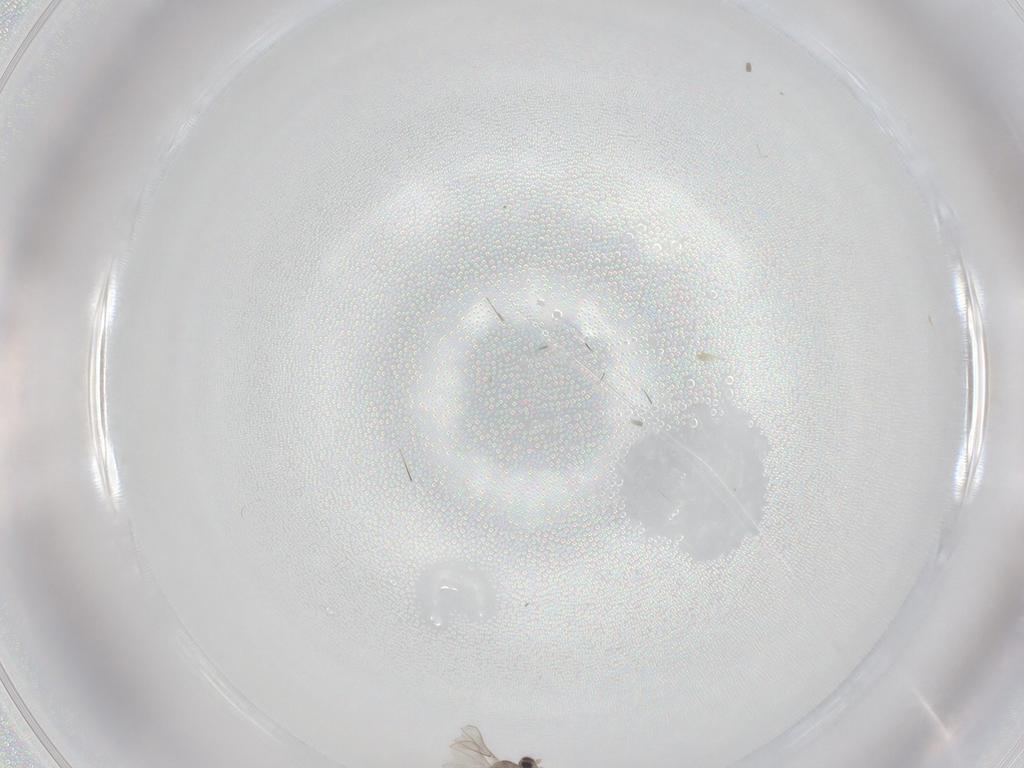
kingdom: Animalia
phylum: Arthropoda
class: Insecta
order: Diptera
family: Cecidomyiidae
